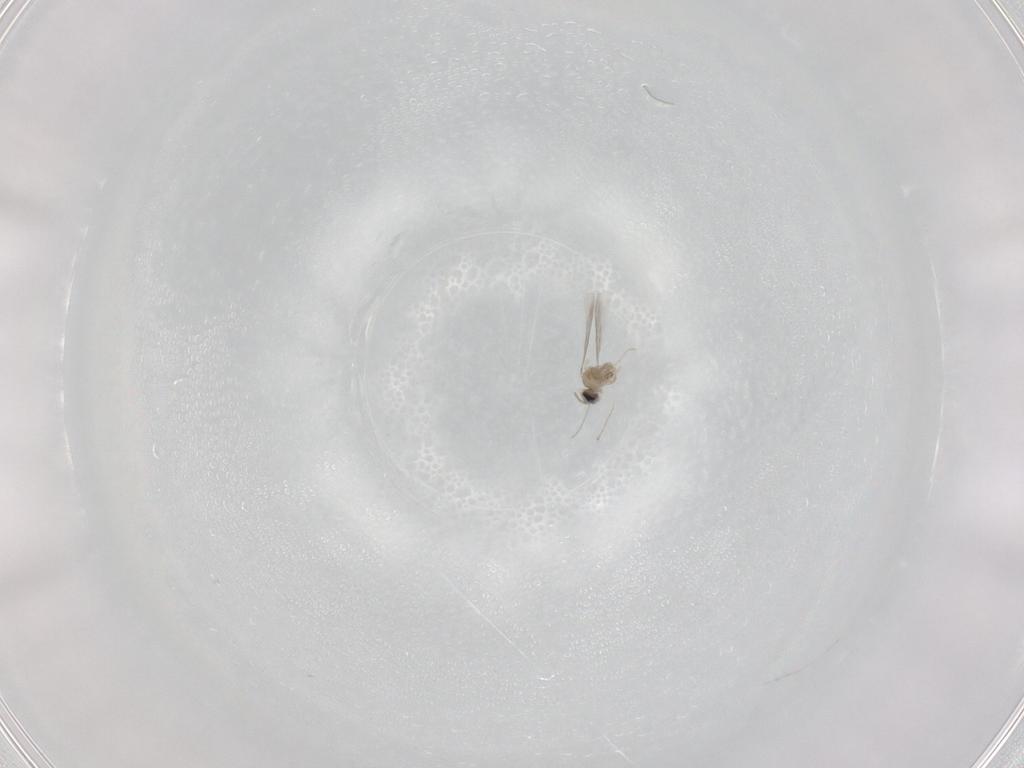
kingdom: Animalia
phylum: Arthropoda
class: Insecta
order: Diptera
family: Cecidomyiidae
